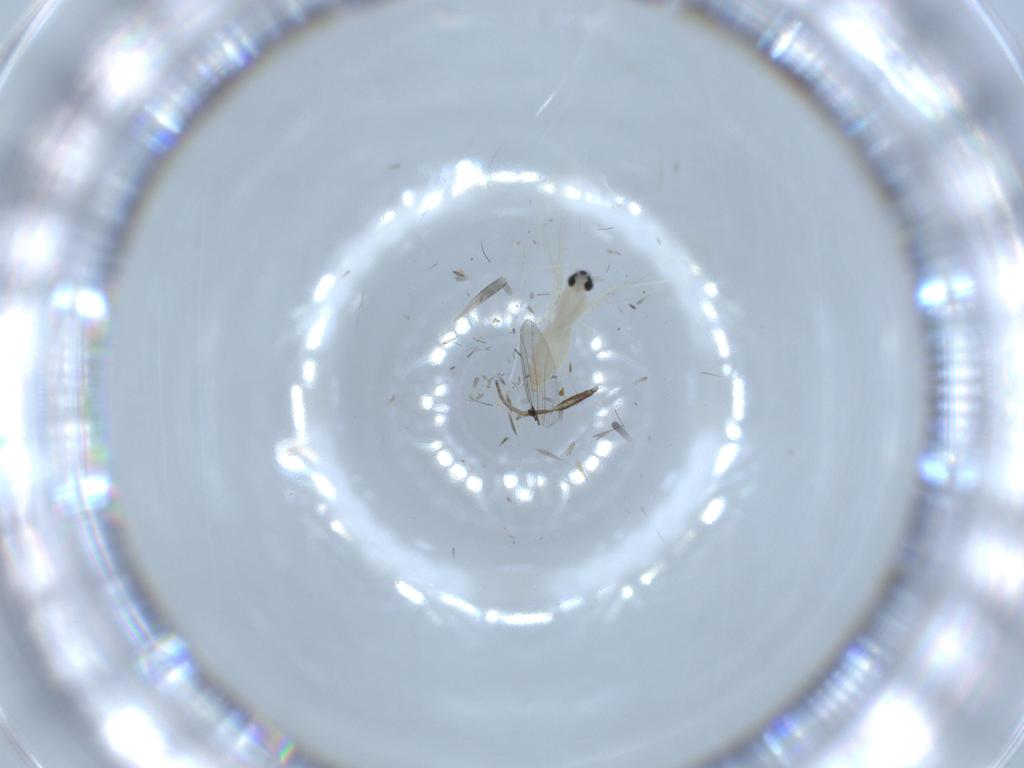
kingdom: Animalia
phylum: Arthropoda
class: Insecta
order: Diptera
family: Cecidomyiidae
